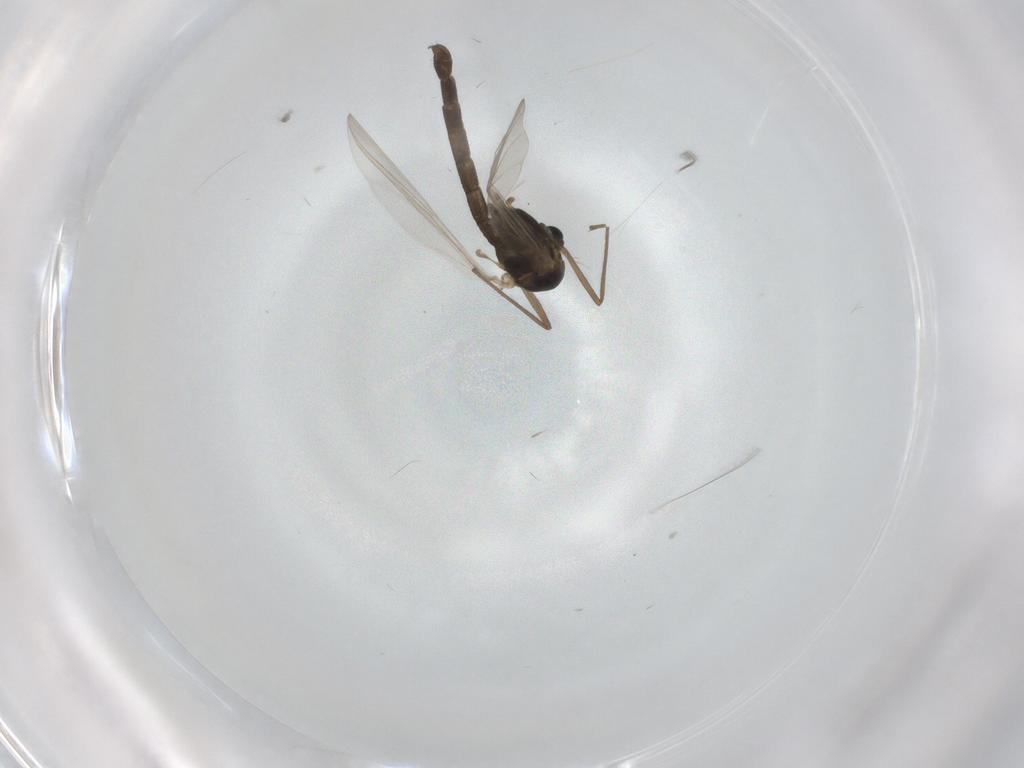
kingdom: Animalia
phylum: Arthropoda
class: Insecta
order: Diptera
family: Chironomidae
